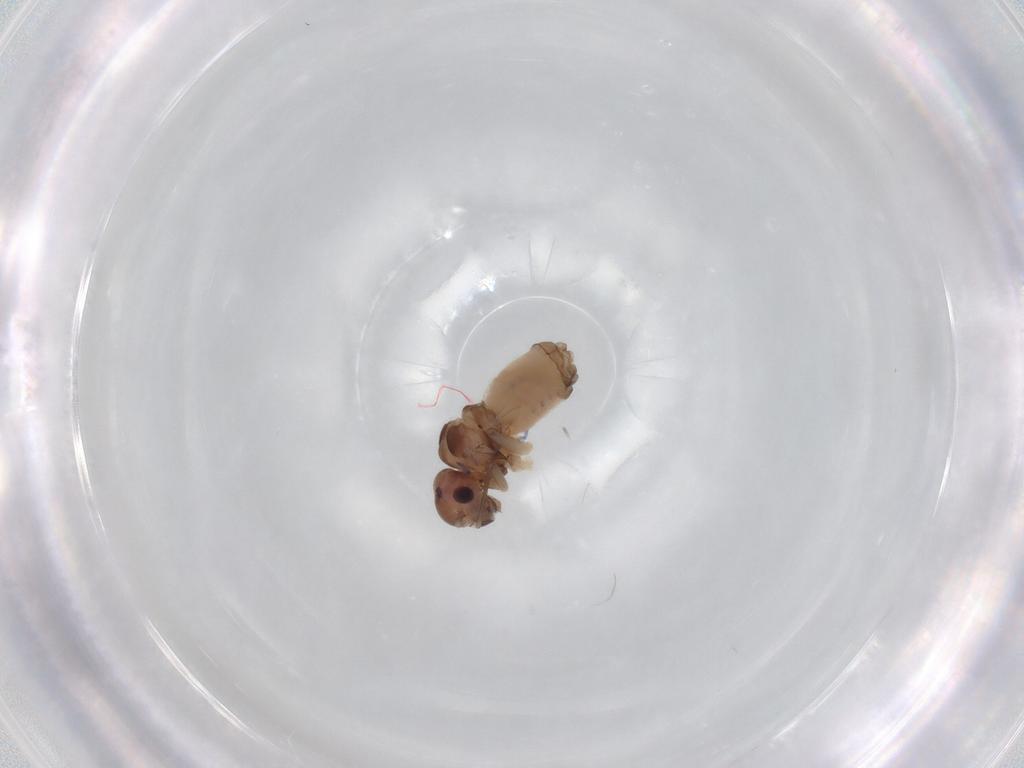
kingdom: Animalia
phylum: Arthropoda
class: Insecta
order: Psocodea
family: Peripsocidae
